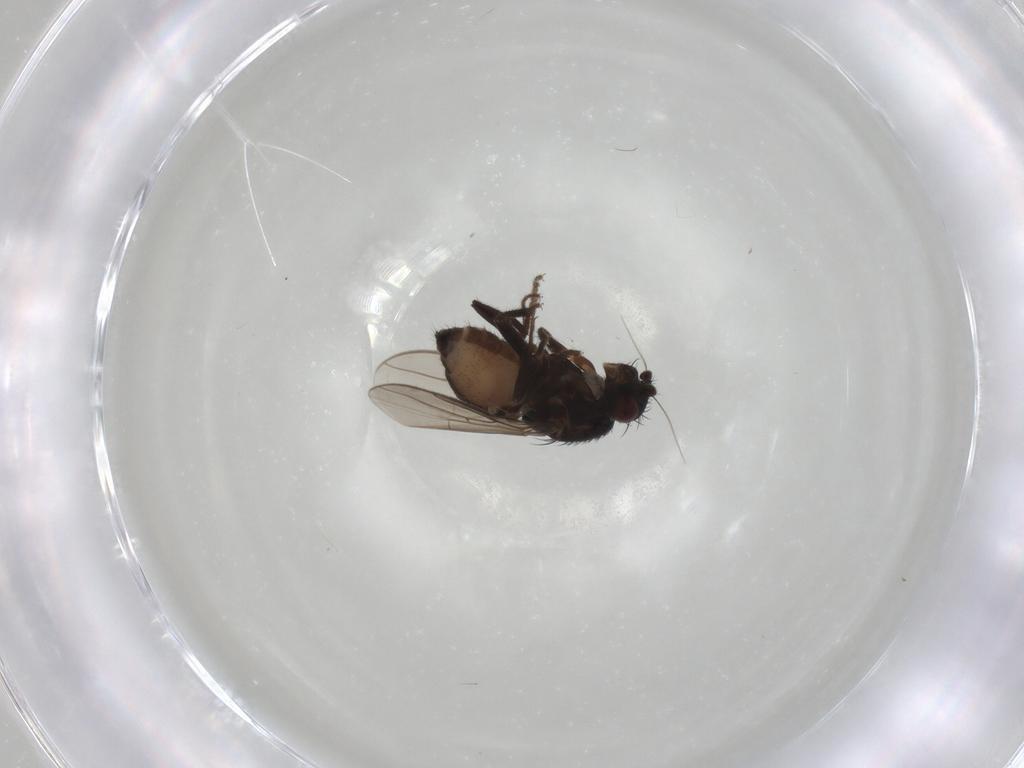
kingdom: Animalia
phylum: Arthropoda
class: Insecta
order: Diptera
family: Sphaeroceridae
